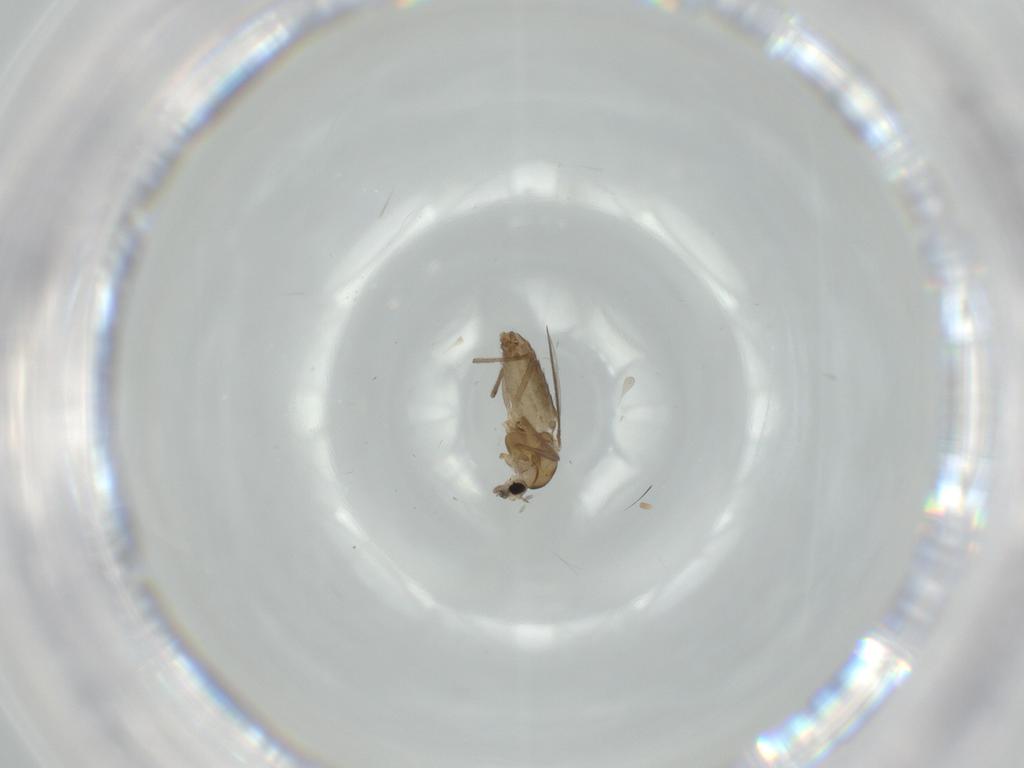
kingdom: Animalia
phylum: Arthropoda
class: Insecta
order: Diptera
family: Chironomidae
